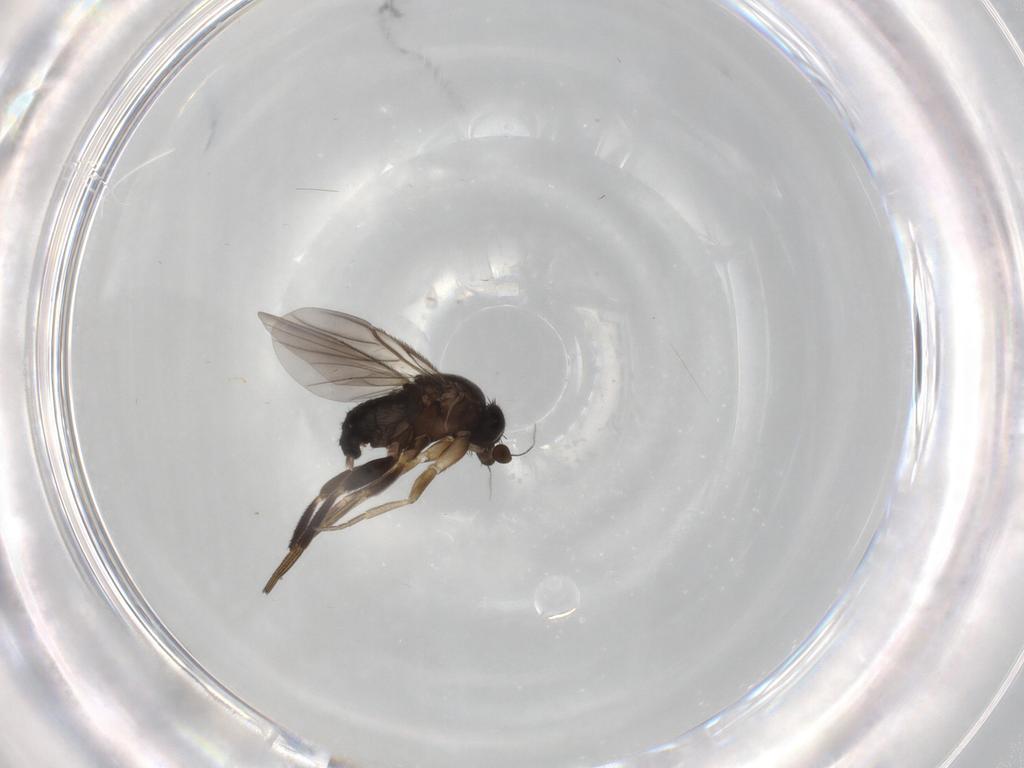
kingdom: Animalia
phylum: Arthropoda
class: Insecta
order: Diptera
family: Phoridae
